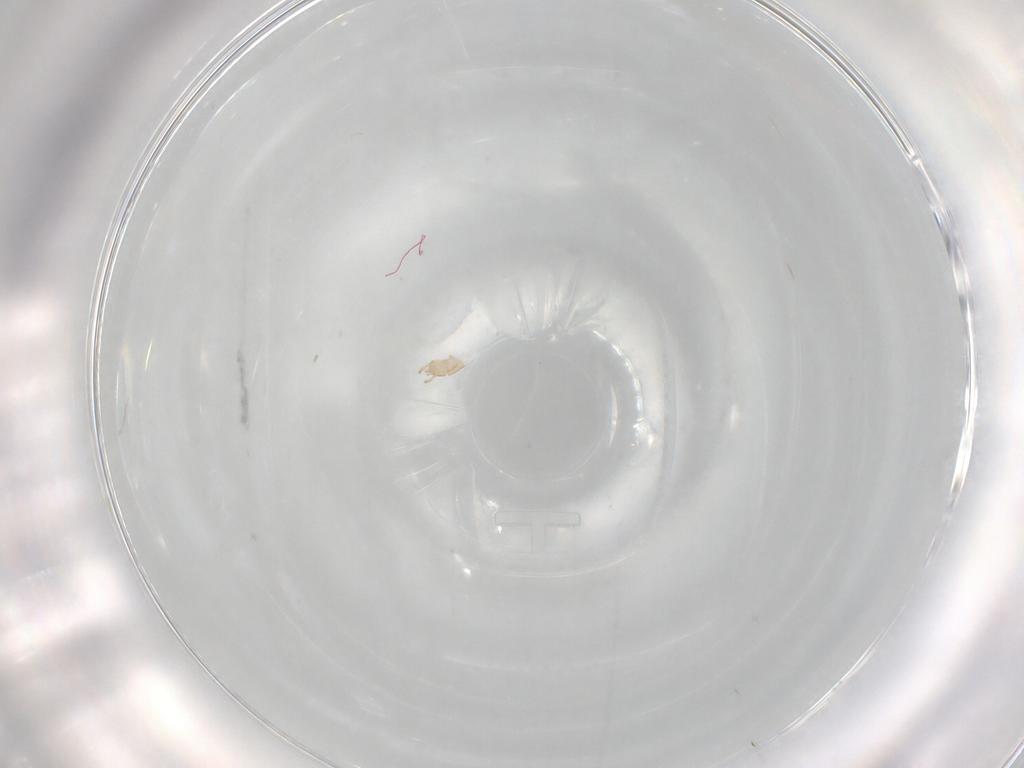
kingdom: Animalia
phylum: Arthropoda
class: Arachnida
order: Mesostigmata
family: Ascidae
